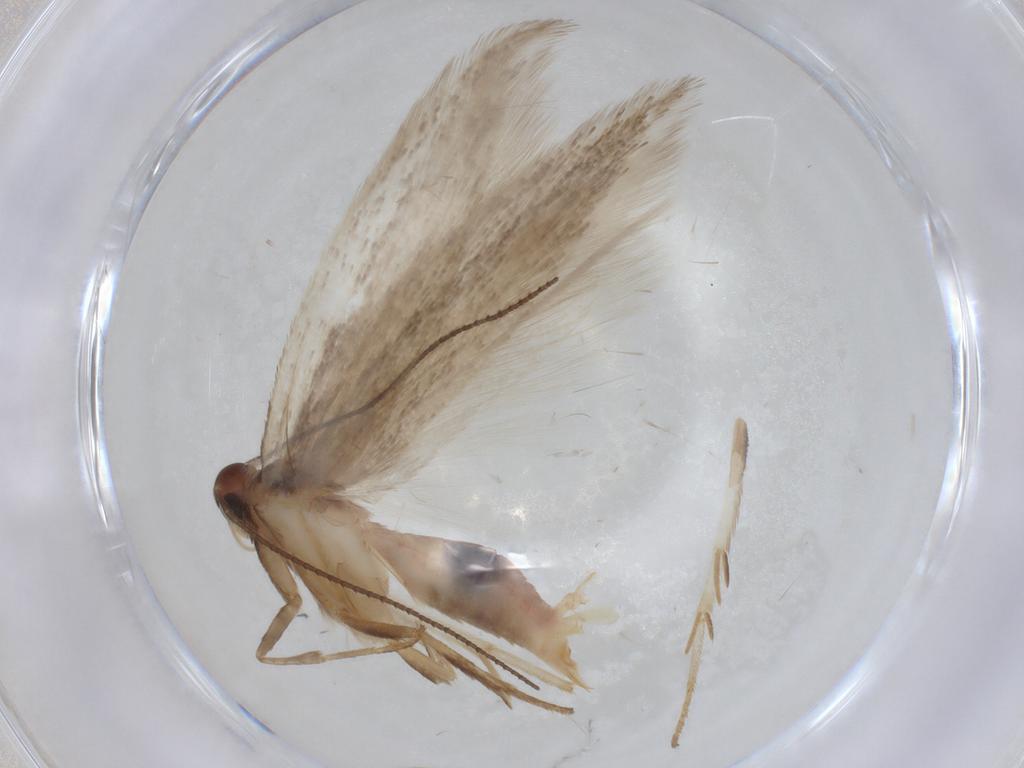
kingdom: Animalia
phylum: Arthropoda
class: Insecta
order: Lepidoptera
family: Gelechiidae
